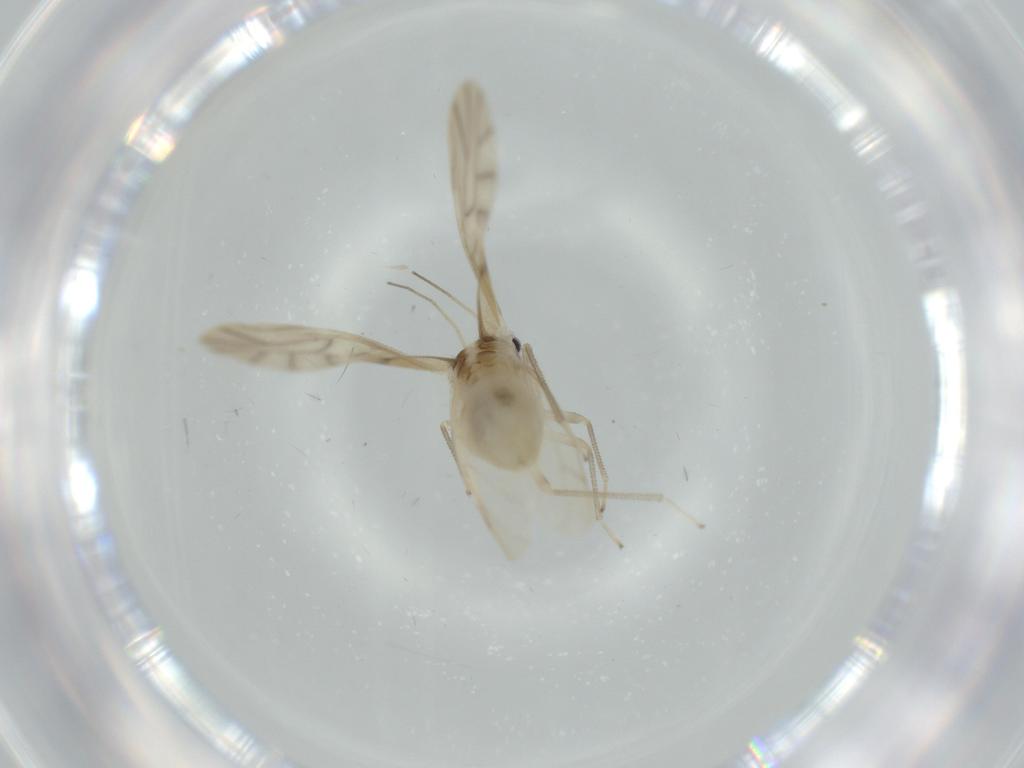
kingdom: Animalia
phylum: Arthropoda
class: Insecta
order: Psocodea
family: Caeciliusidae
